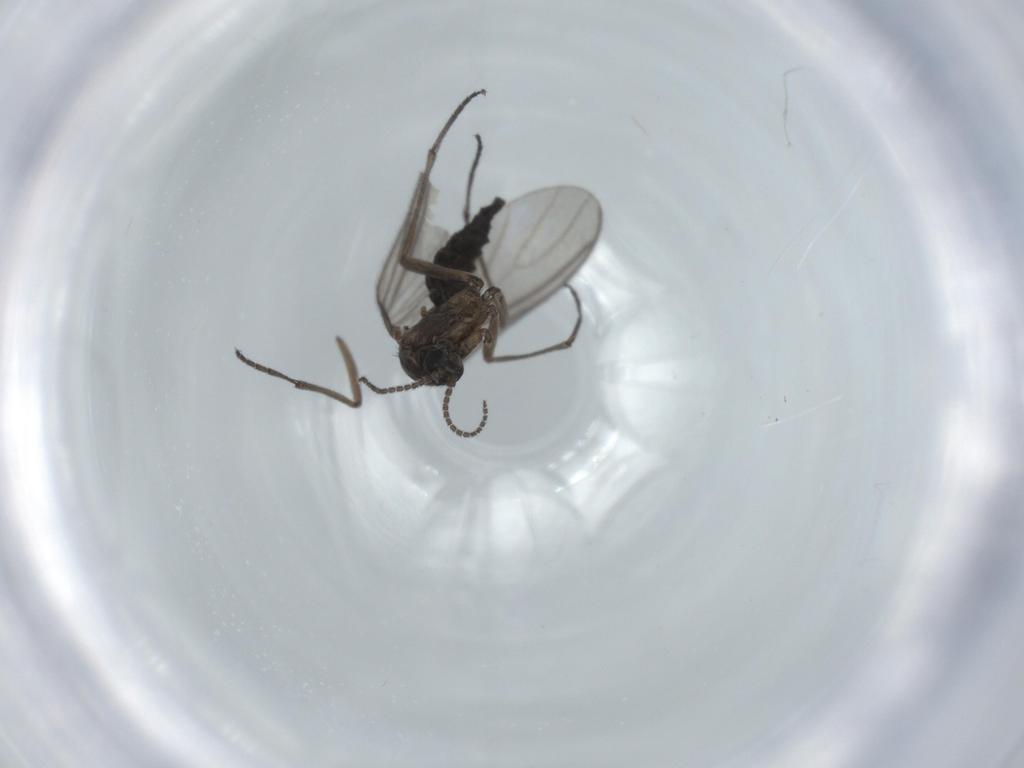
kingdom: Animalia
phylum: Arthropoda
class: Insecta
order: Diptera
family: Sciaridae
